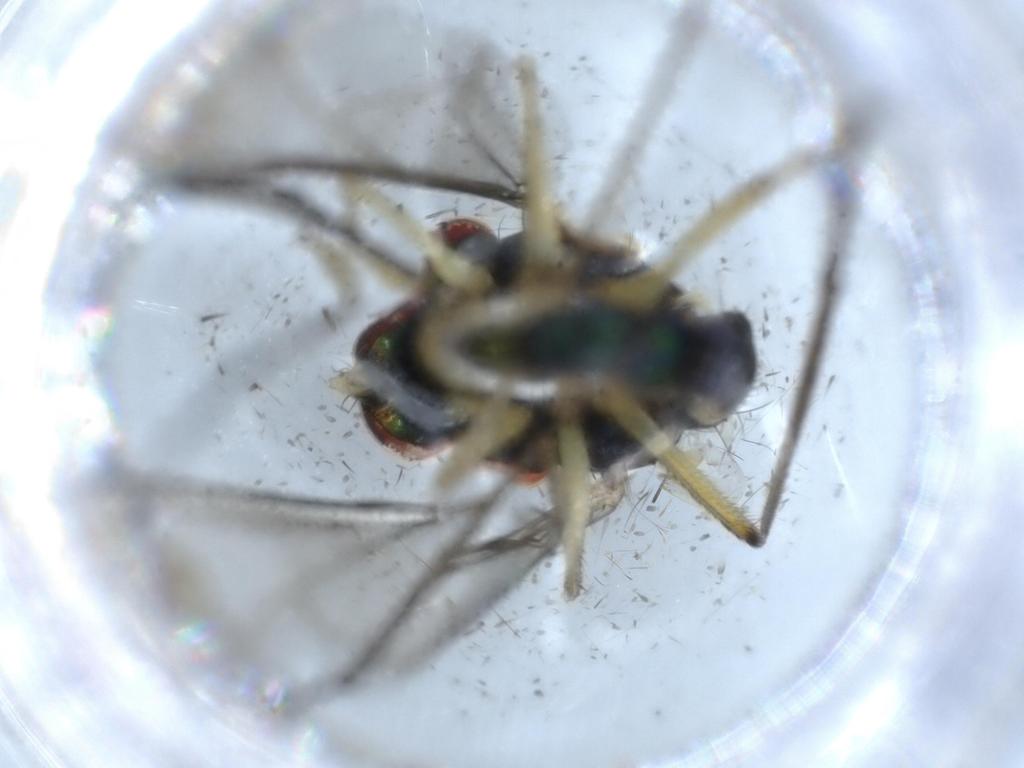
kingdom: Animalia
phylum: Arthropoda
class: Insecta
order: Diptera
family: Dolichopodidae
